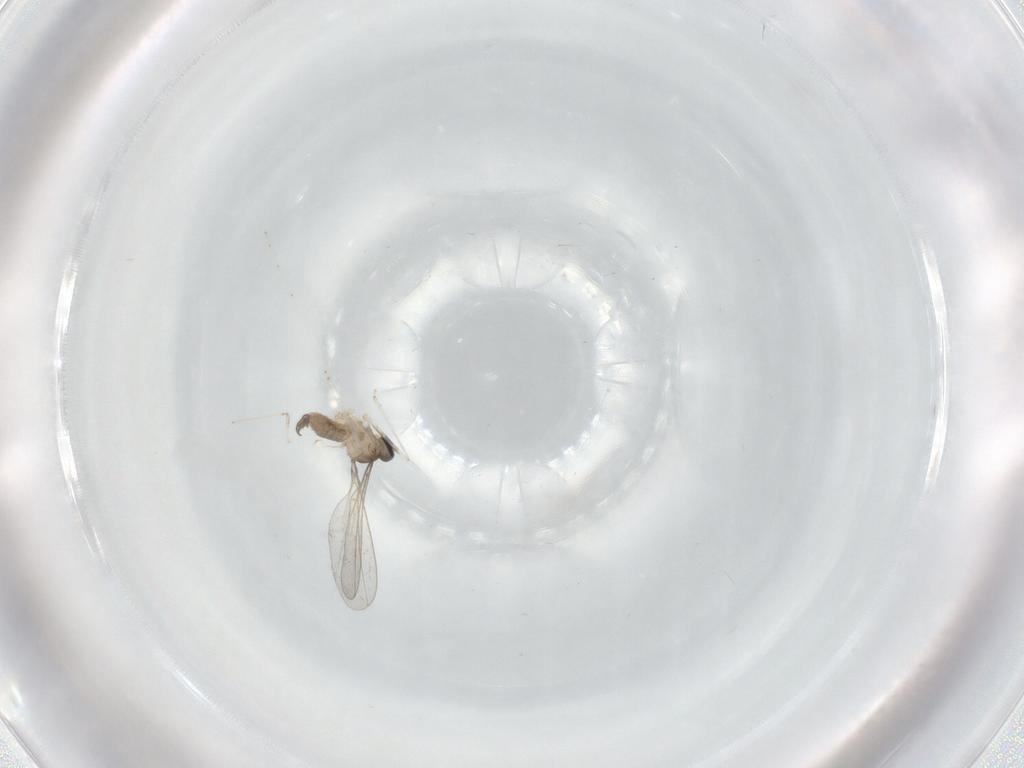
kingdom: Animalia
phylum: Arthropoda
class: Insecta
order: Diptera
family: Cecidomyiidae
